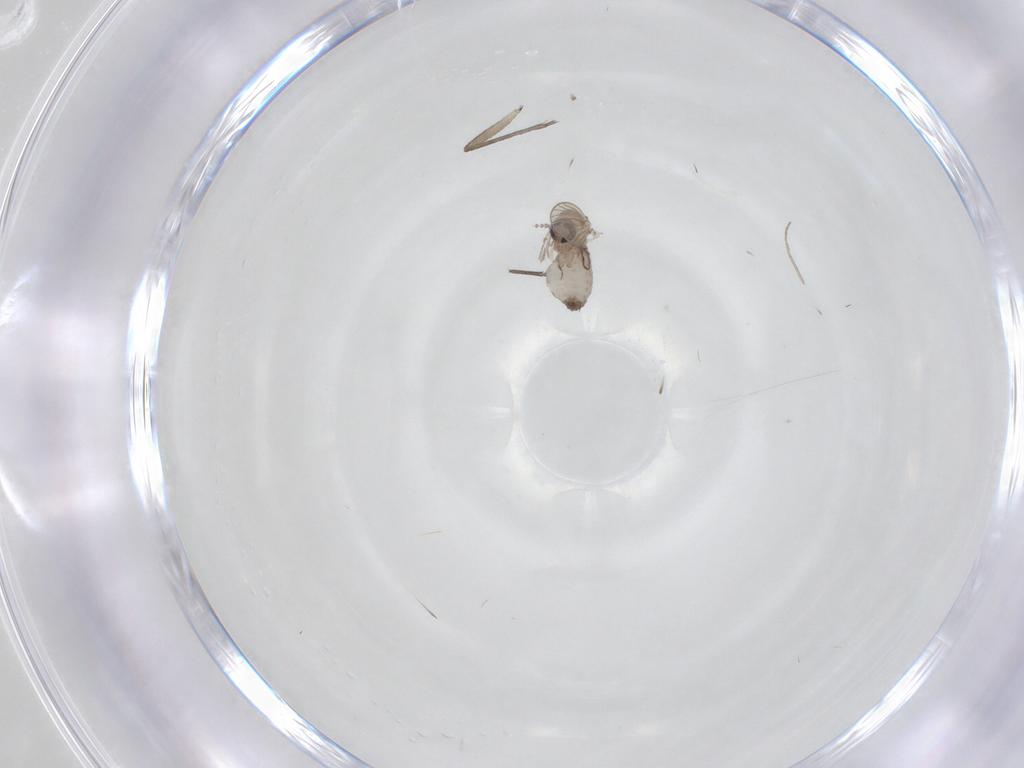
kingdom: Animalia
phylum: Arthropoda
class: Insecta
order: Diptera
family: Psychodidae
